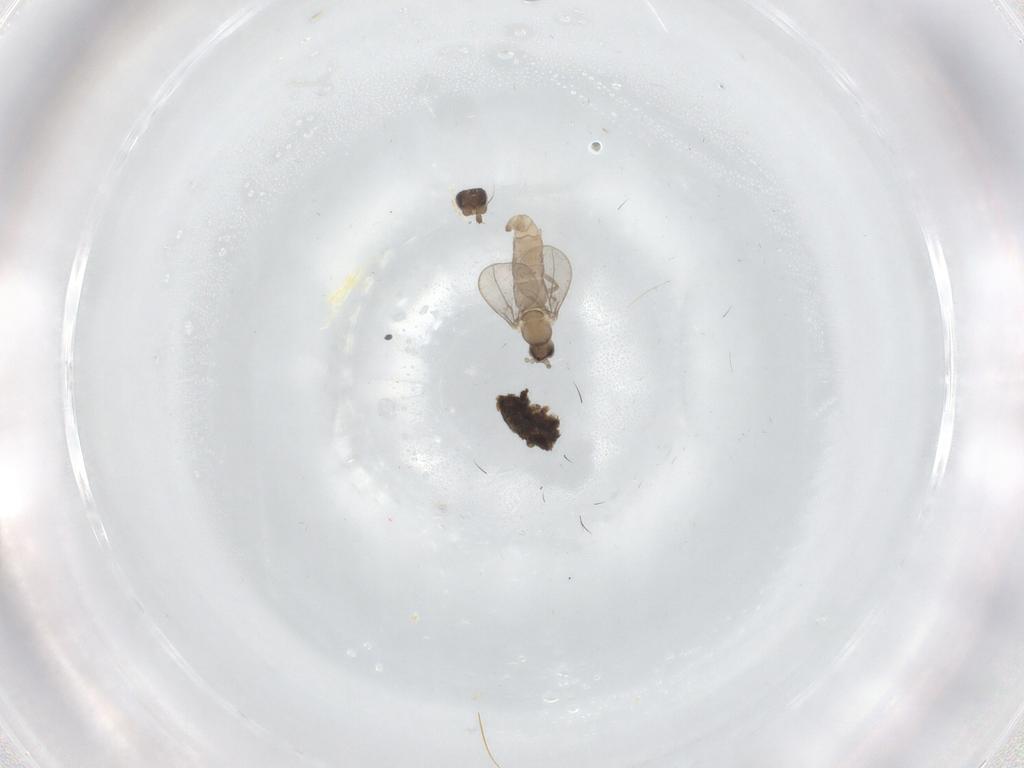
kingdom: Animalia
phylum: Arthropoda
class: Insecta
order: Diptera
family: Cecidomyiidae
